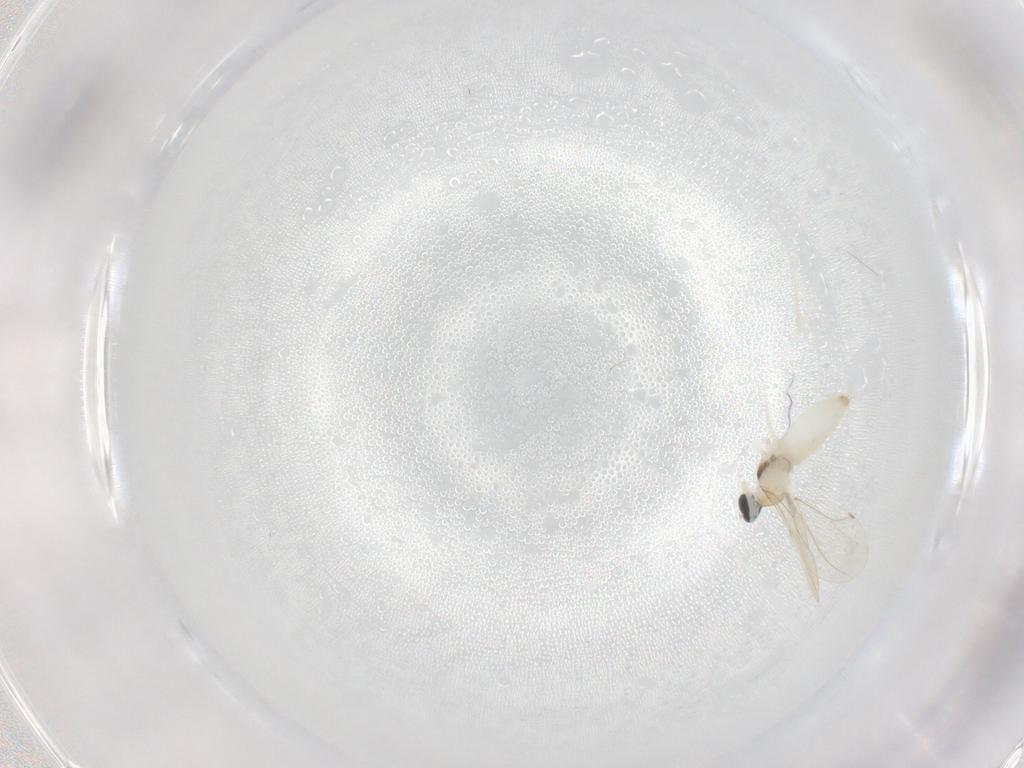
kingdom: Animalia
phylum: Arthropoda
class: Insecta
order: Diptera
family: Cecidomyiidae
